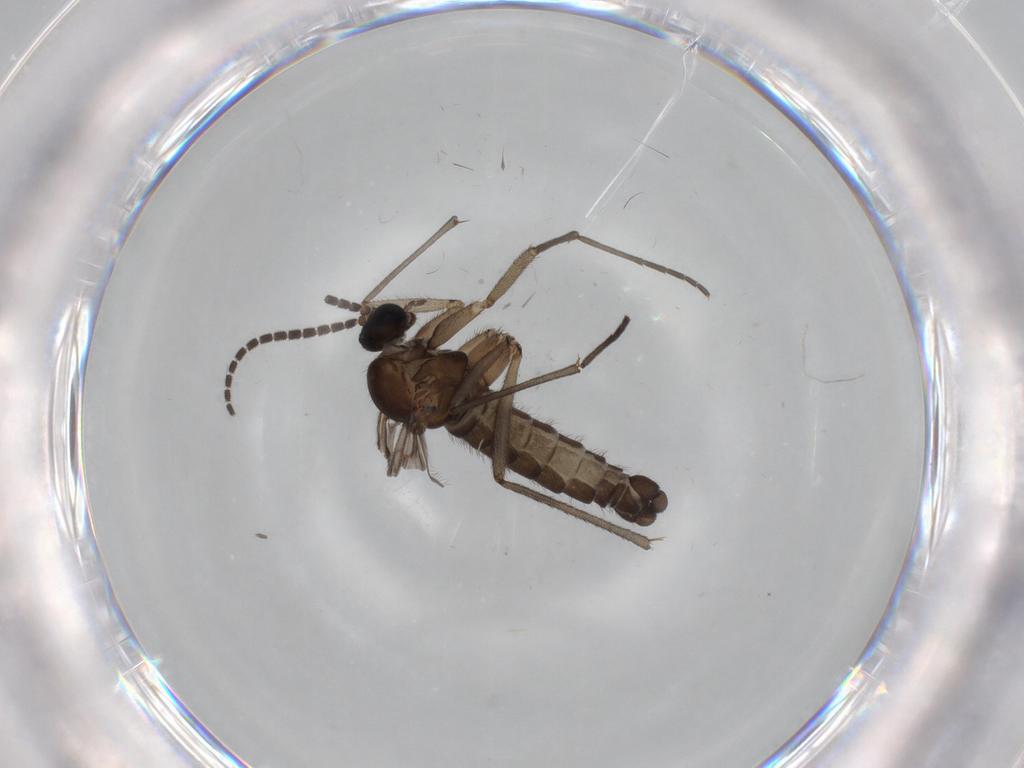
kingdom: Animalia
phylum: Arthropoda
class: Insecta
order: Diptera
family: Sciaridae
